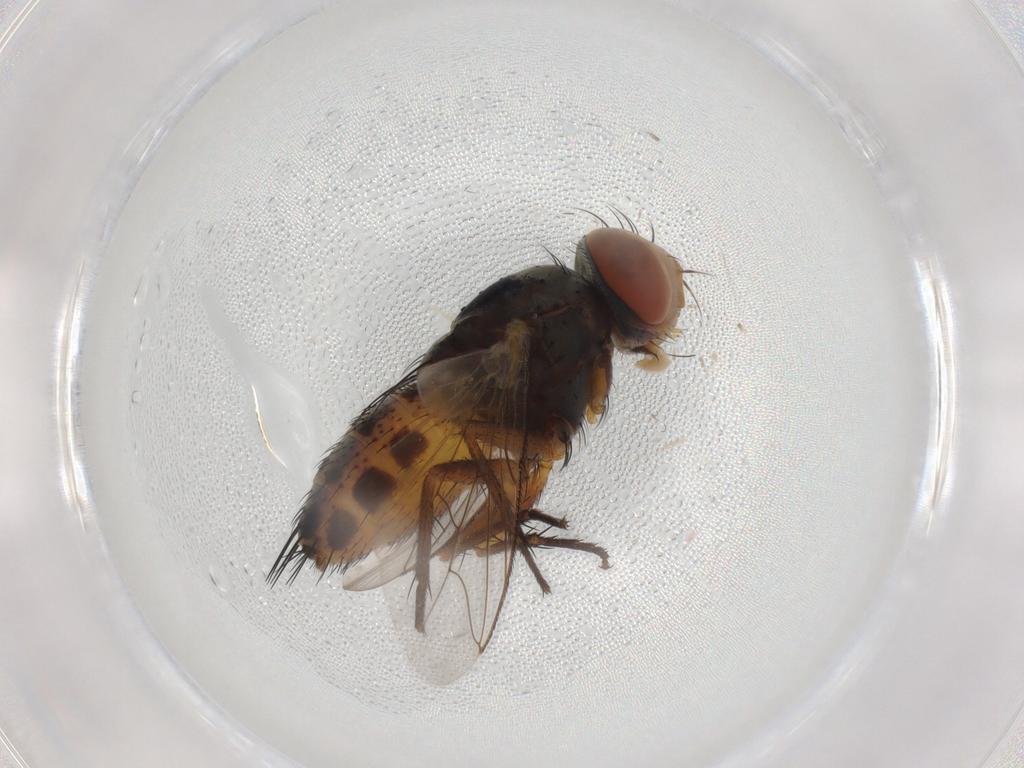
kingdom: Animalia
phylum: Arthropoda
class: Insecta
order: Diptera
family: Sarcophagidae
